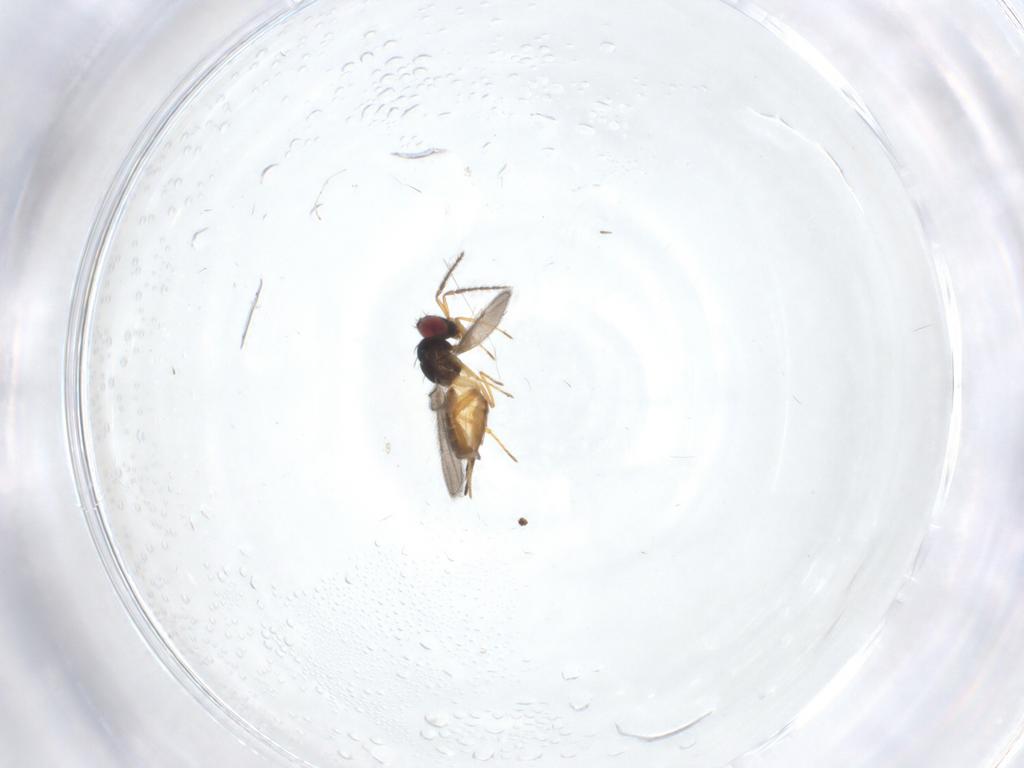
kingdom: Animalia
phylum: Arthropoda
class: Insecta
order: Hymenoptera
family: Eulophidae
